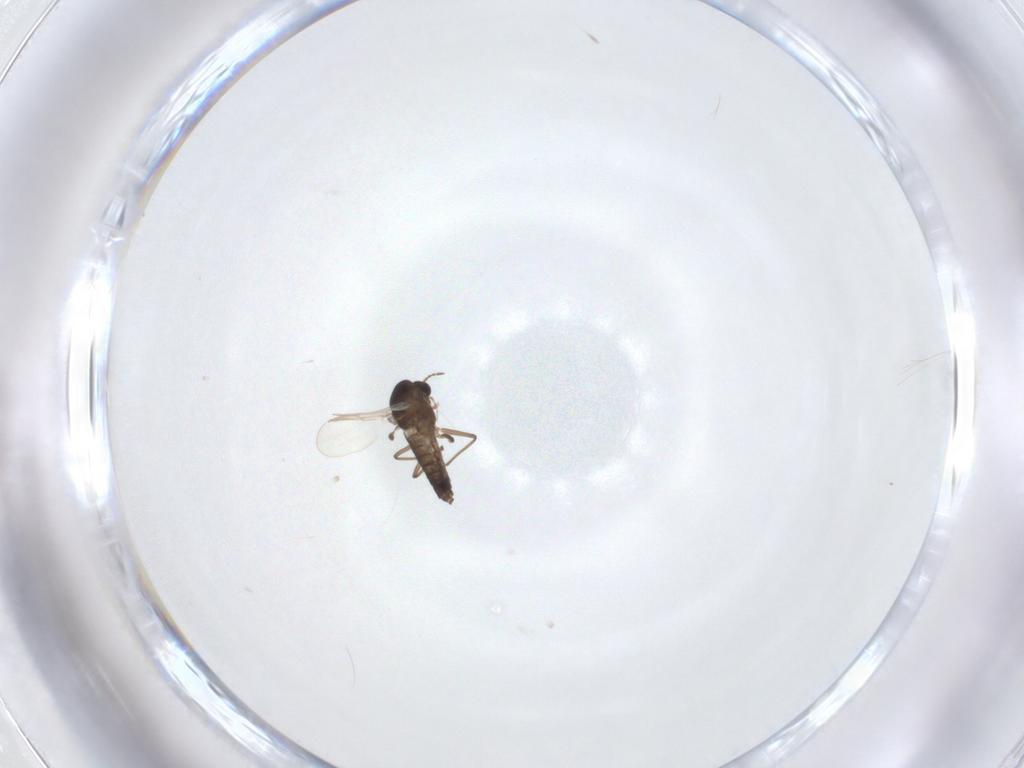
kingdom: Animalia
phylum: Arthropoda
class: Insecta
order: Diptera
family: Chironomidae
